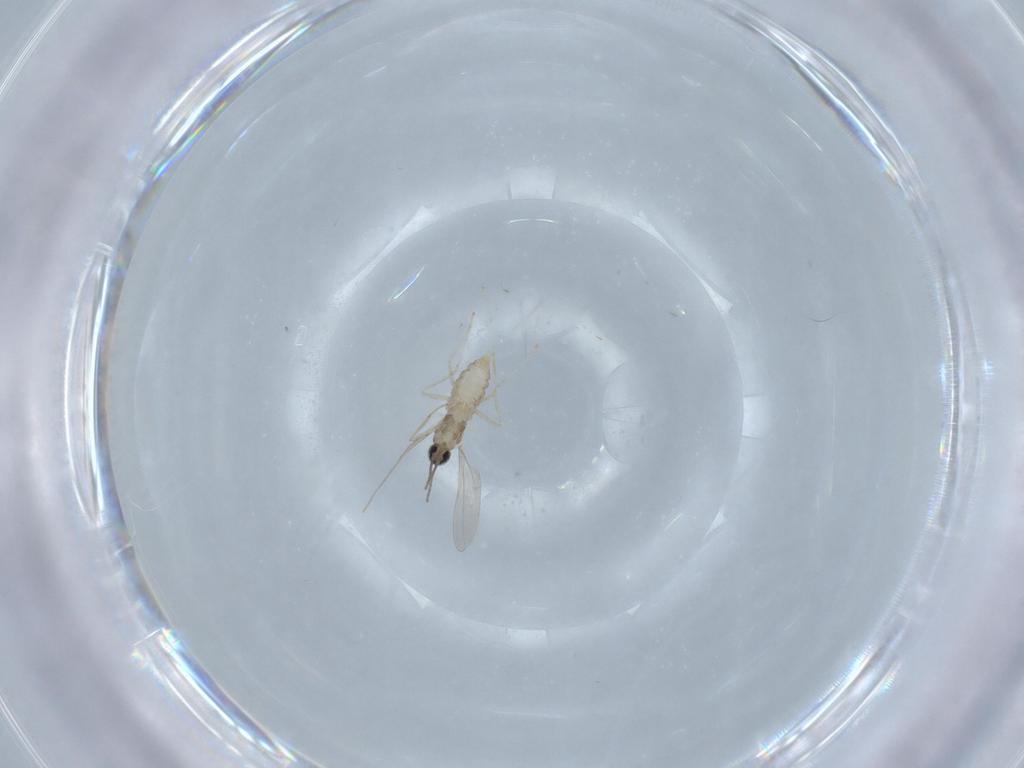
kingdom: Animalia
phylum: Arthropoda
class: Insecta
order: Diptera
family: Cecidomyiidae
